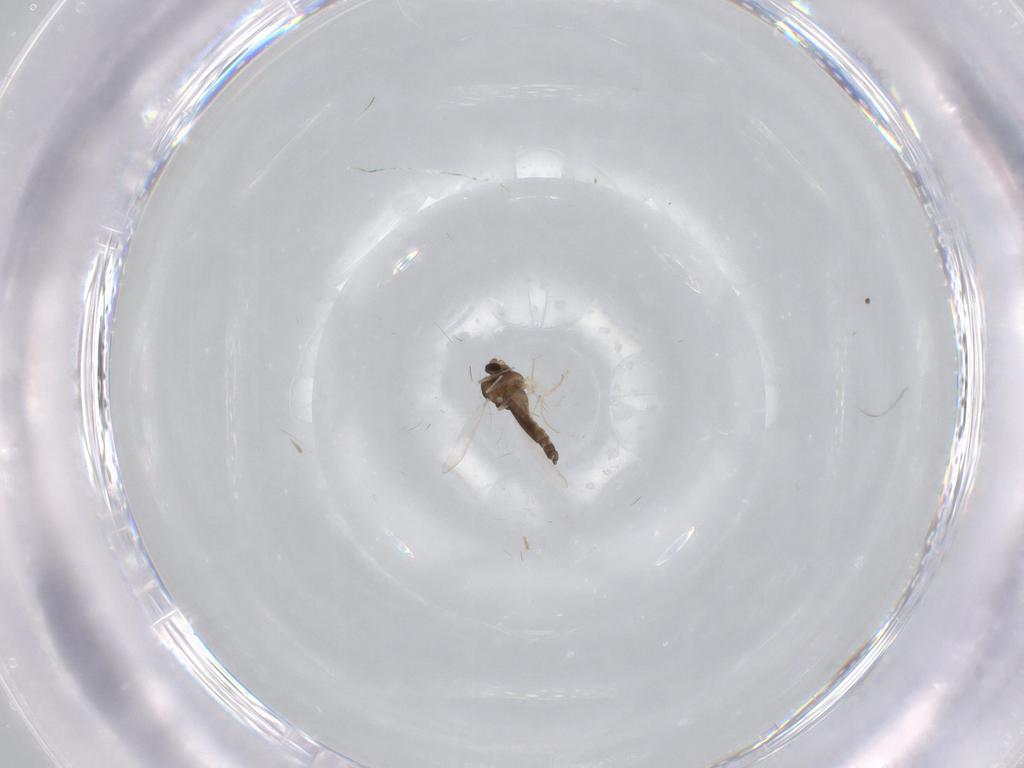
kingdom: Animalia
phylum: Arthropoda
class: Insecta
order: Diptera
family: Chironomidae
